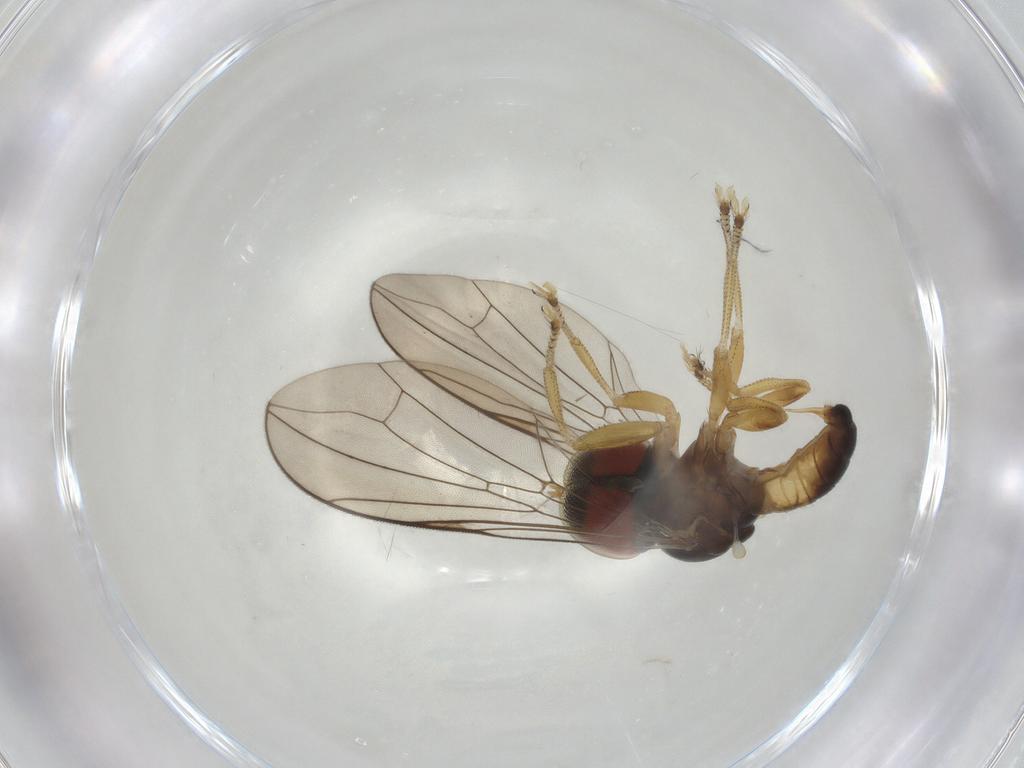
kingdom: Animalia
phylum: Arthropoda
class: Insecta
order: Diptera
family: Pipunculidae
